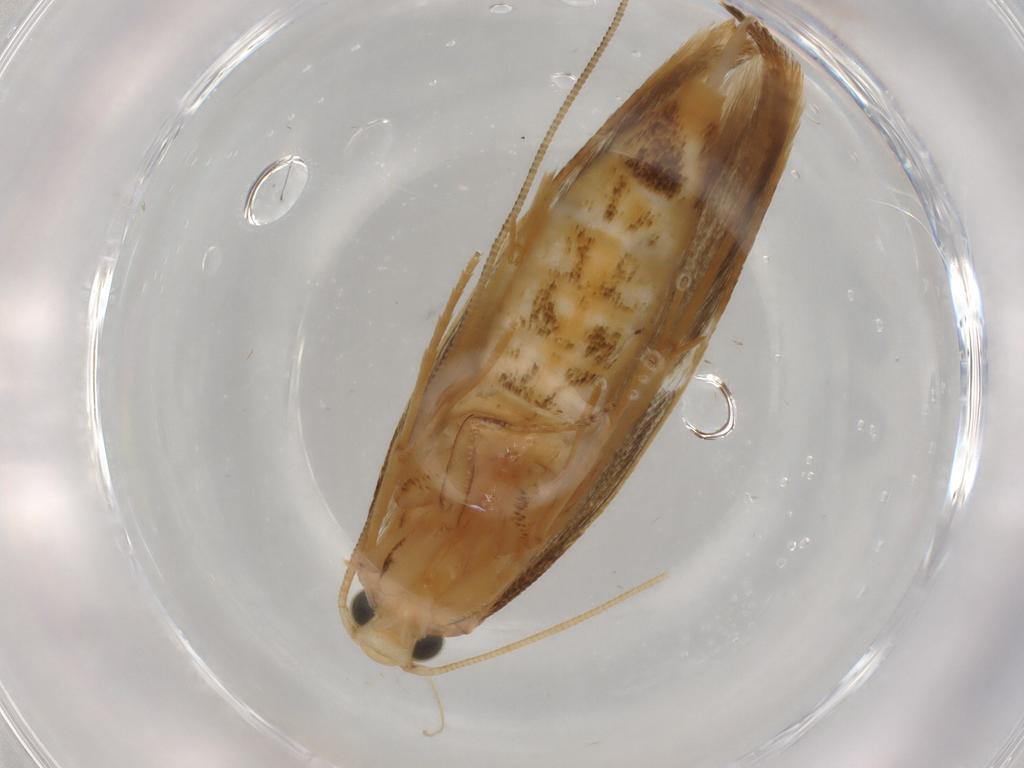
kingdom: Animalia
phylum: Arthropoda
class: Insecta
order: Lepidoptera
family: Tineidae
